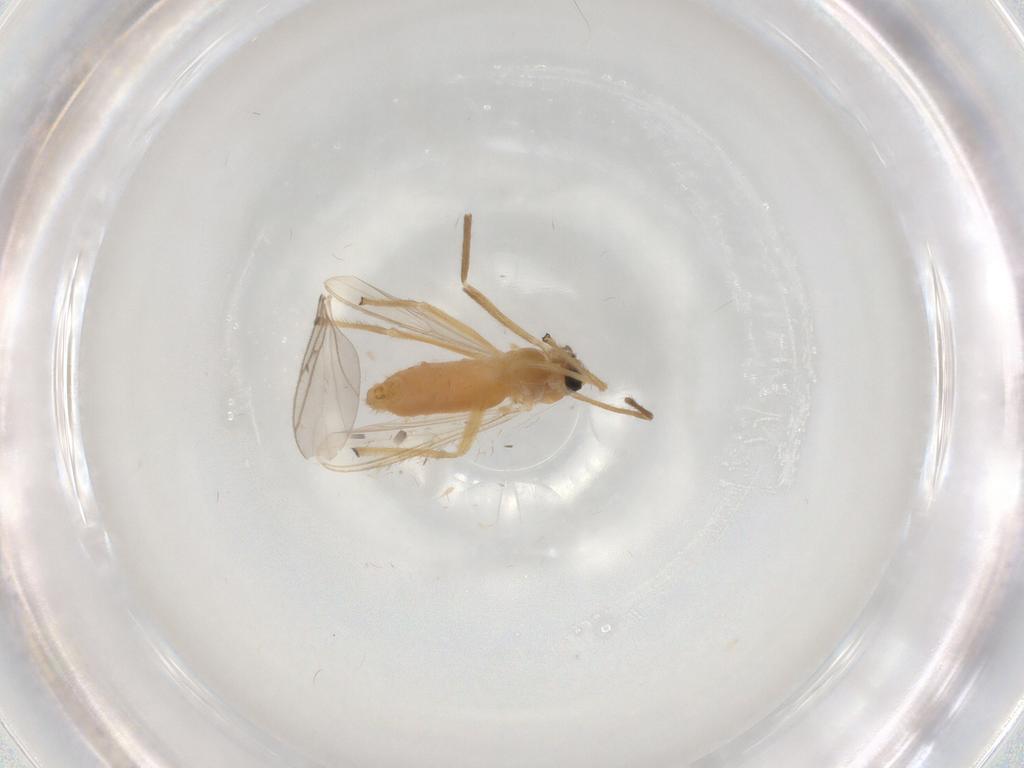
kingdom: Animalia
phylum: Arthropoda
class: Insecta
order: Diptera
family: Chironomidae
